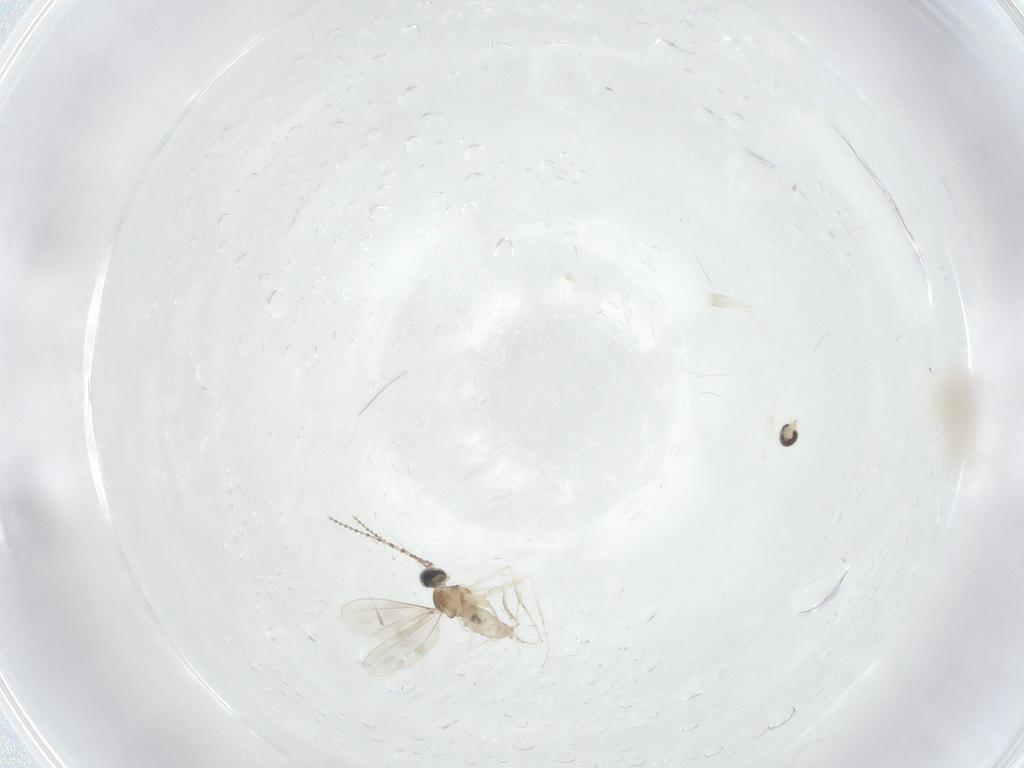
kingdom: Animalia
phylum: Arthropoda
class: Insecta
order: Diptera
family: Cecidomyiidae
